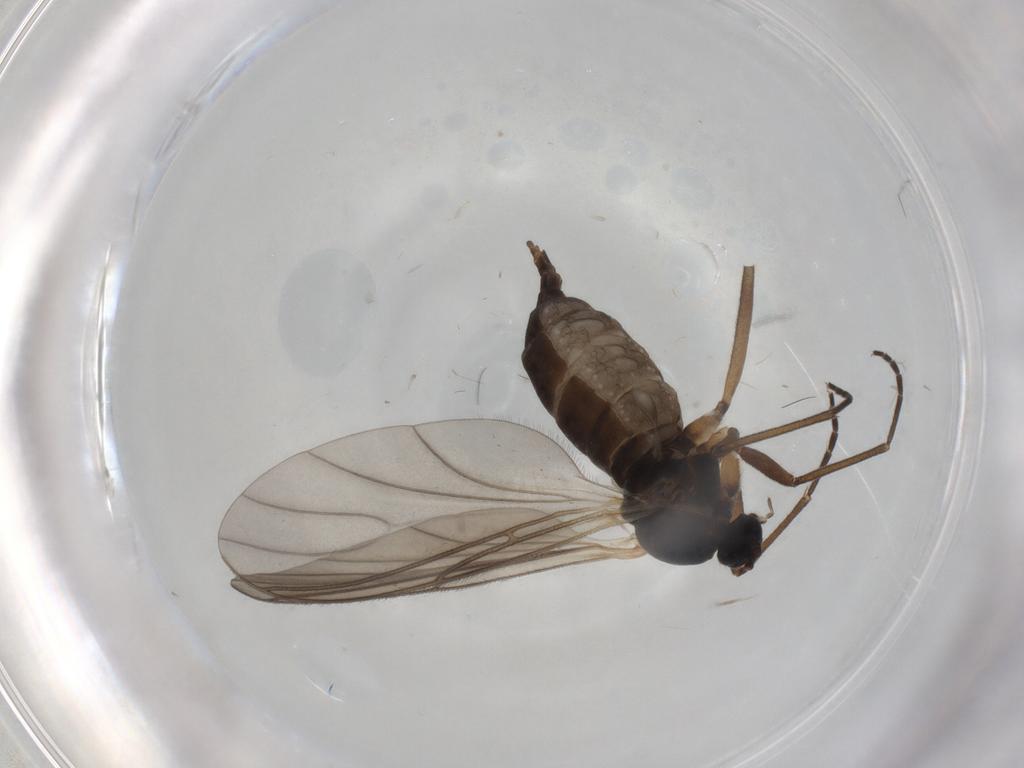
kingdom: Animalia
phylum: Arthropoda
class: Insecta
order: Diptera
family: Sciaridae
